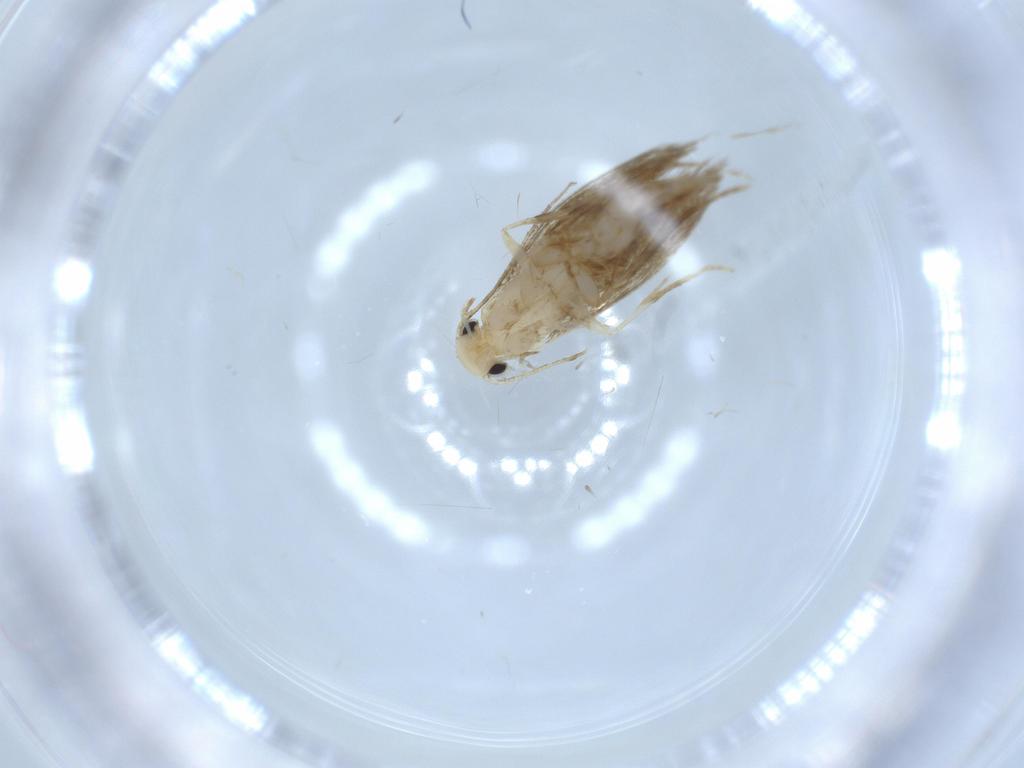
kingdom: Animalia
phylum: Arthropoda
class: Insecta
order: Lepidoptera
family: Tineidae
